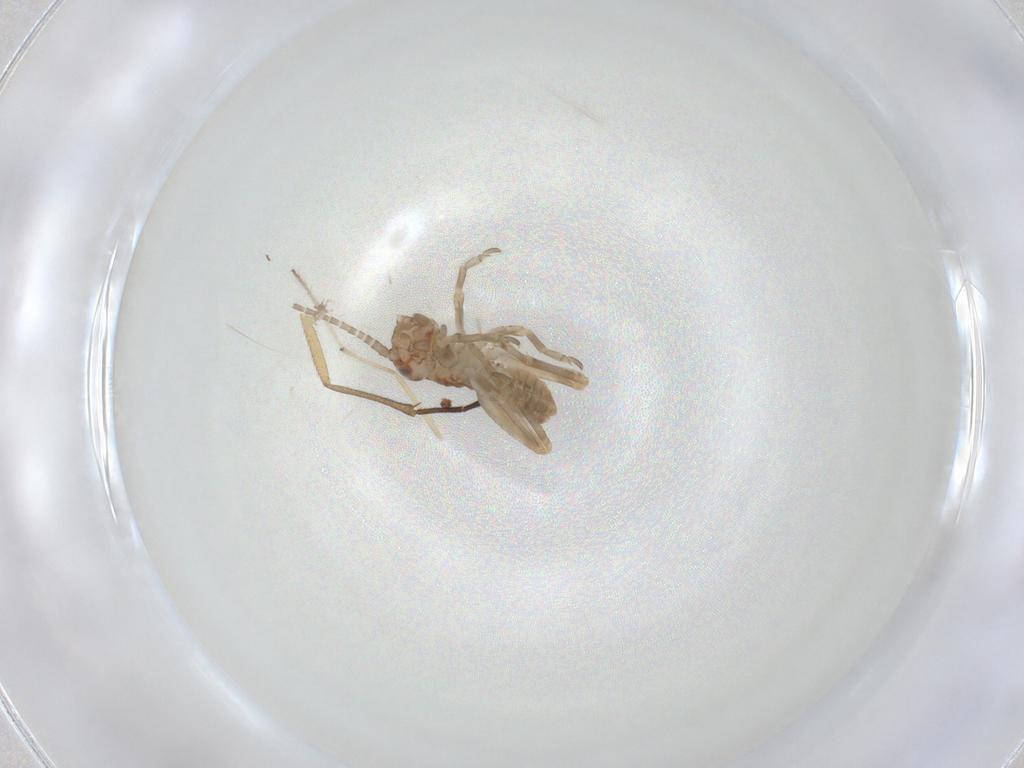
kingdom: Animalia
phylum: Arthropoda
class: Insecta
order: Orthoptera
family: Mogoplistidae
